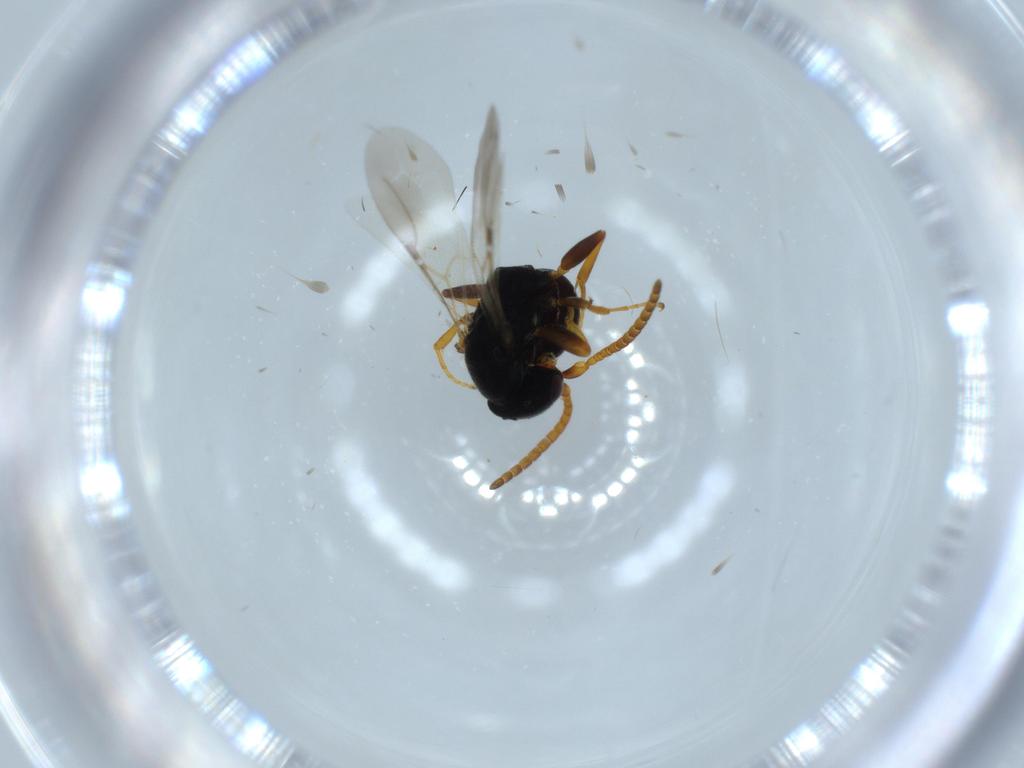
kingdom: Animalia
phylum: Arthropoda
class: Insecta
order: Hymenoptera
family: Bethylidae
